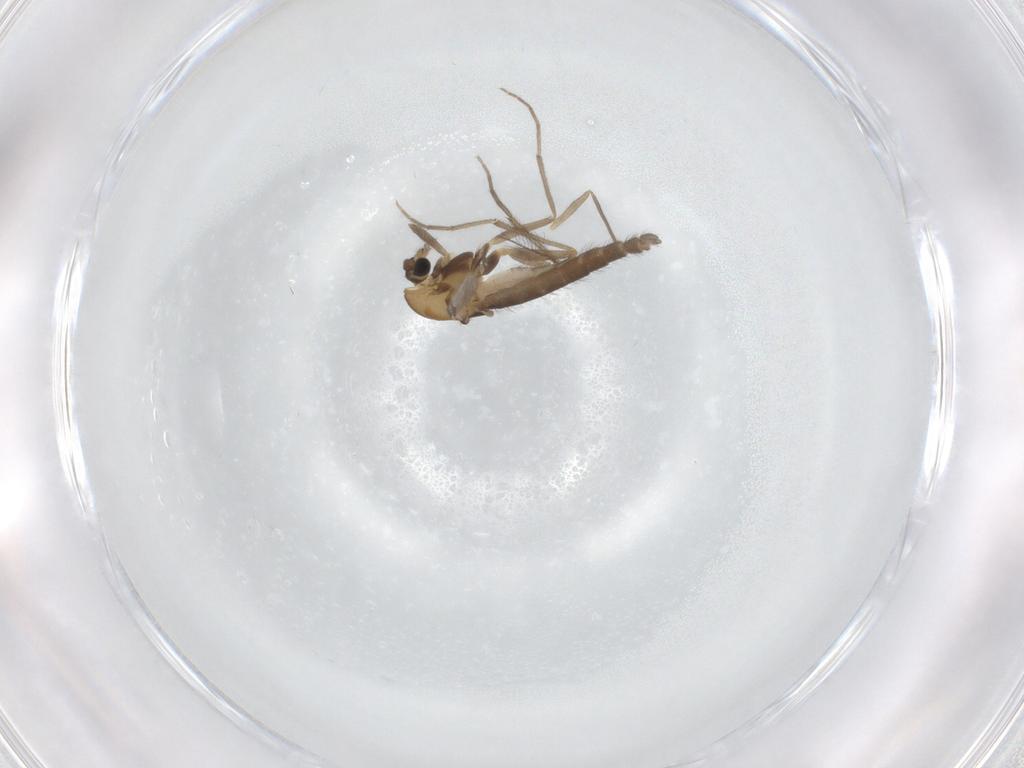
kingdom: Animalia
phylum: Arthropoda
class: Insecta
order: Diptera
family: Chironomidae
